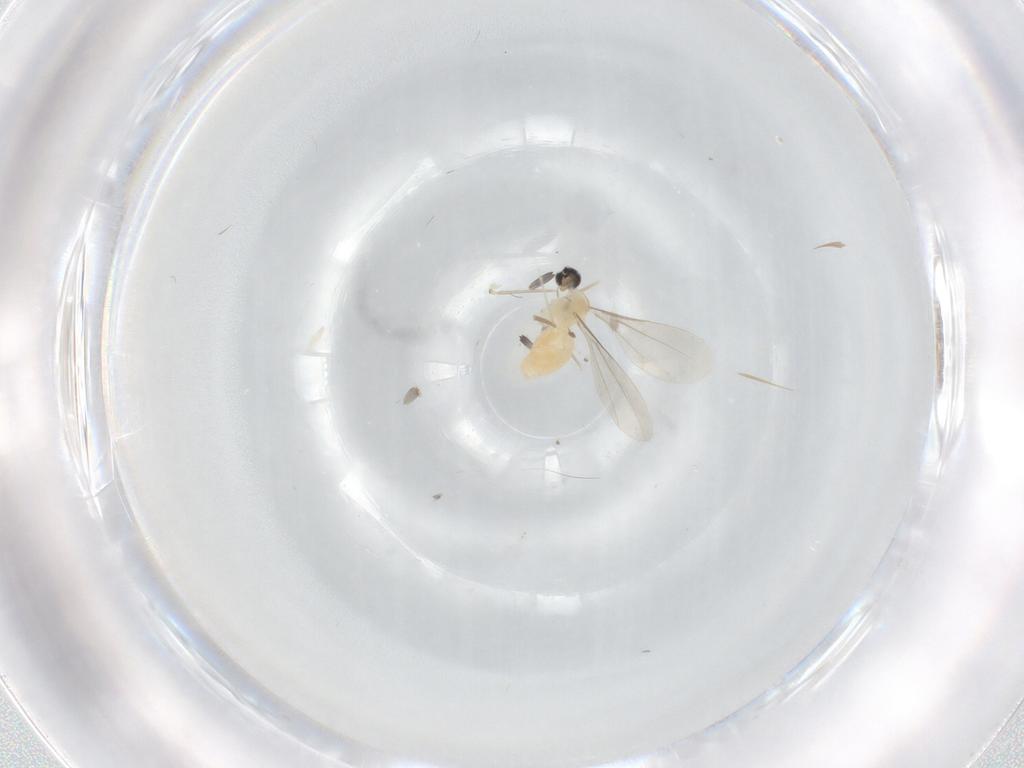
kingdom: Animalia
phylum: Arthropoda
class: Insecta
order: Diptera
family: Cecidomyiidae
